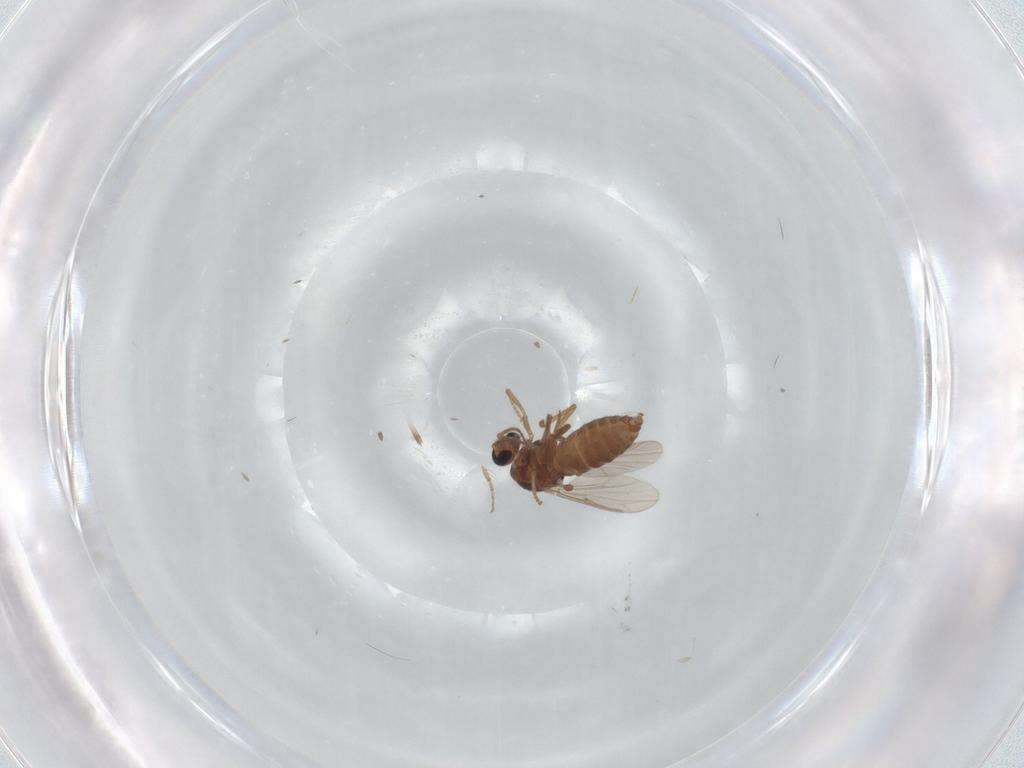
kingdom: Animalia
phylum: Arthropoda
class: Insecta
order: Diptera
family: Ceratopogonidae
